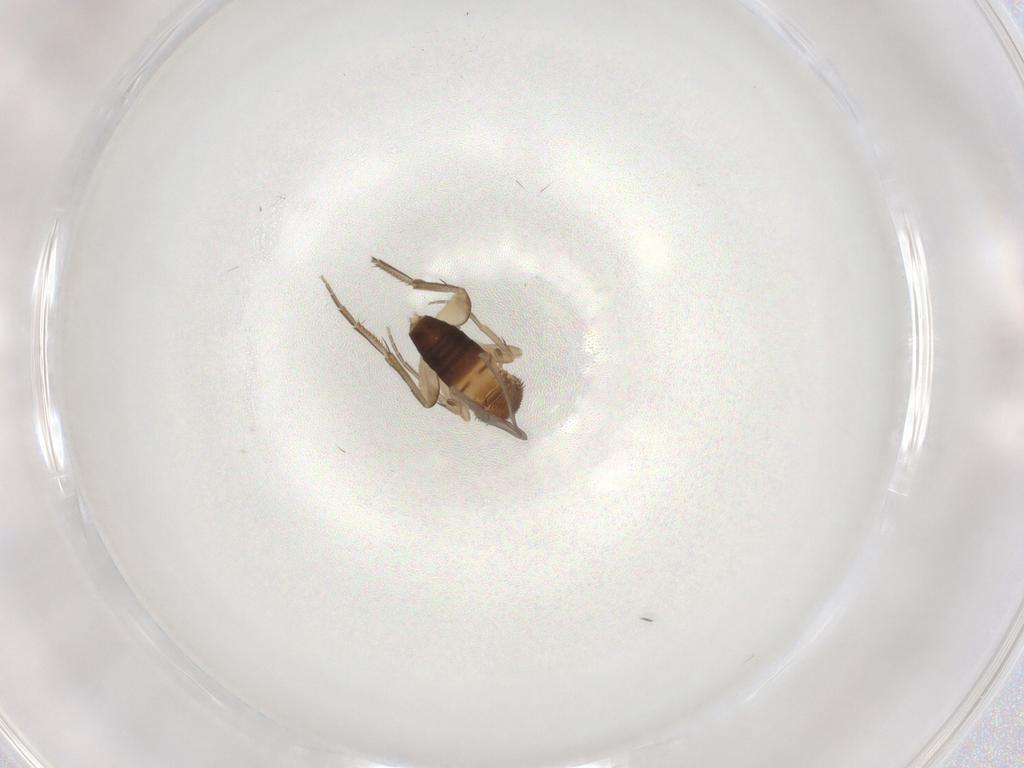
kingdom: Animalia
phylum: Arthropoda
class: Insecta
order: Diptera
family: Phoridae
